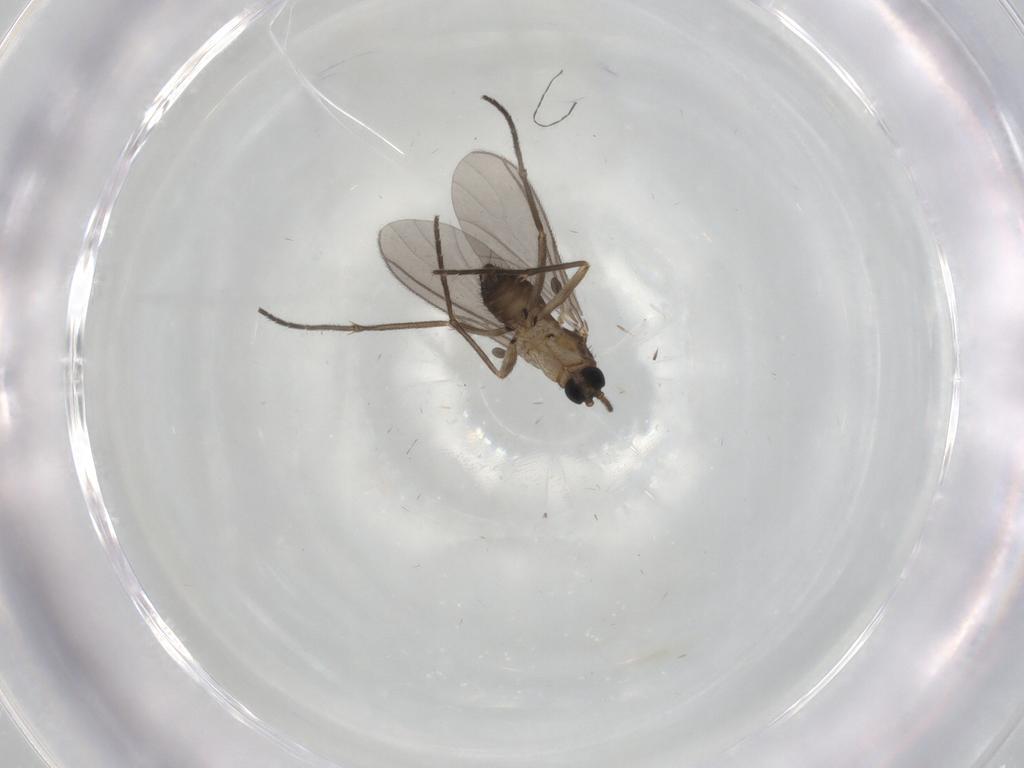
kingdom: Animalia
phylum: Arthropoda
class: Insecta
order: Diptera
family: Sciaridae
